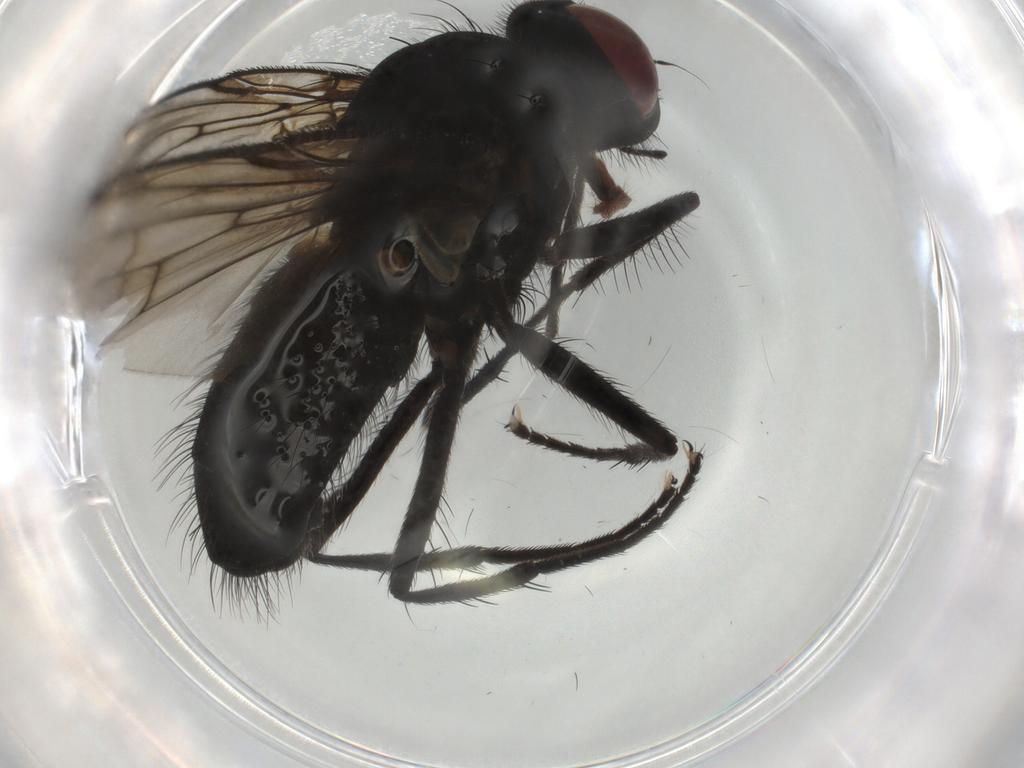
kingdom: Animalia
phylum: Arthropoda
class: Insecta
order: Diptera
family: Muscidae
